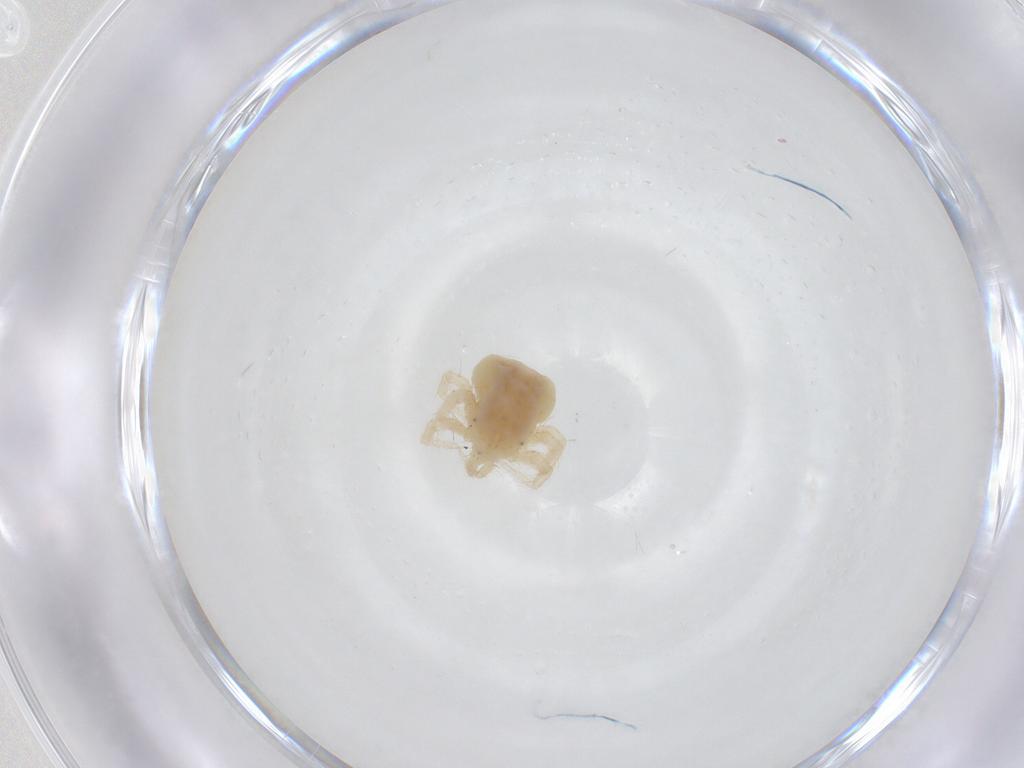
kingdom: Animalia
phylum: Arthropoda
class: Arachnida
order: Trombidiformes
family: Anystidae
